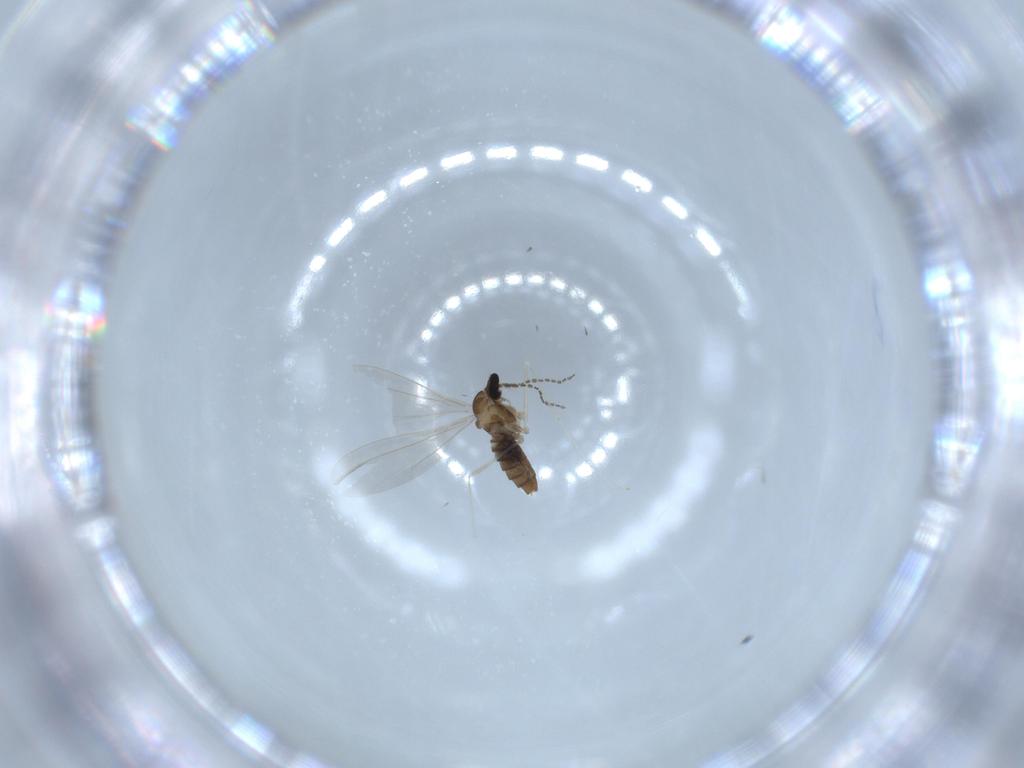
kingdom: Animalia
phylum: Arthropoda
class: Insecta
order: Diptera
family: Cecidomyiidae
